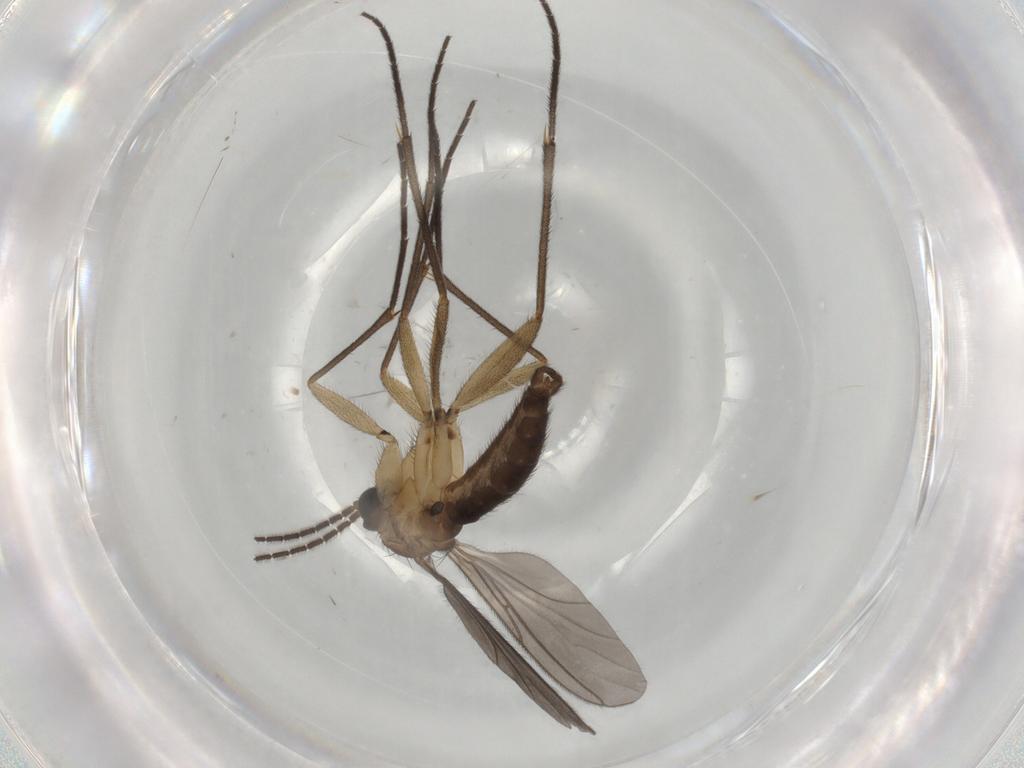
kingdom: Animalia
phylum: Arthropoda
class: Insecta
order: Diptera
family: Sciaridae
